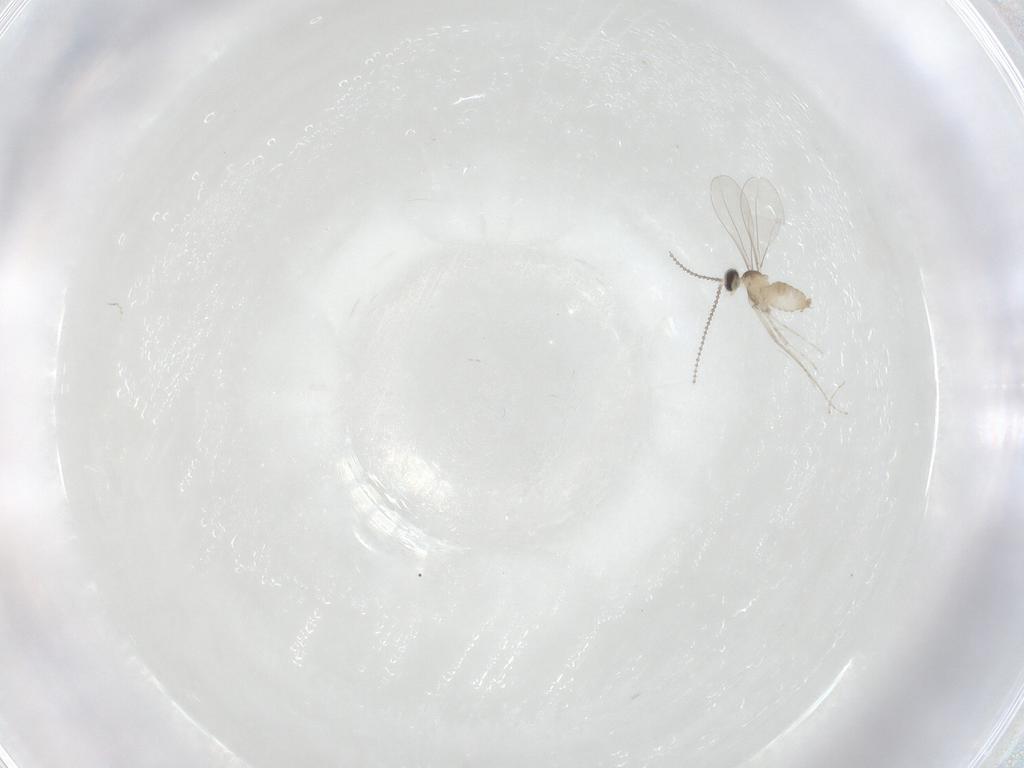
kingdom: Animalia
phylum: Arthropoda
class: Insecta
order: Diptera
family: Cecidomyiidae
